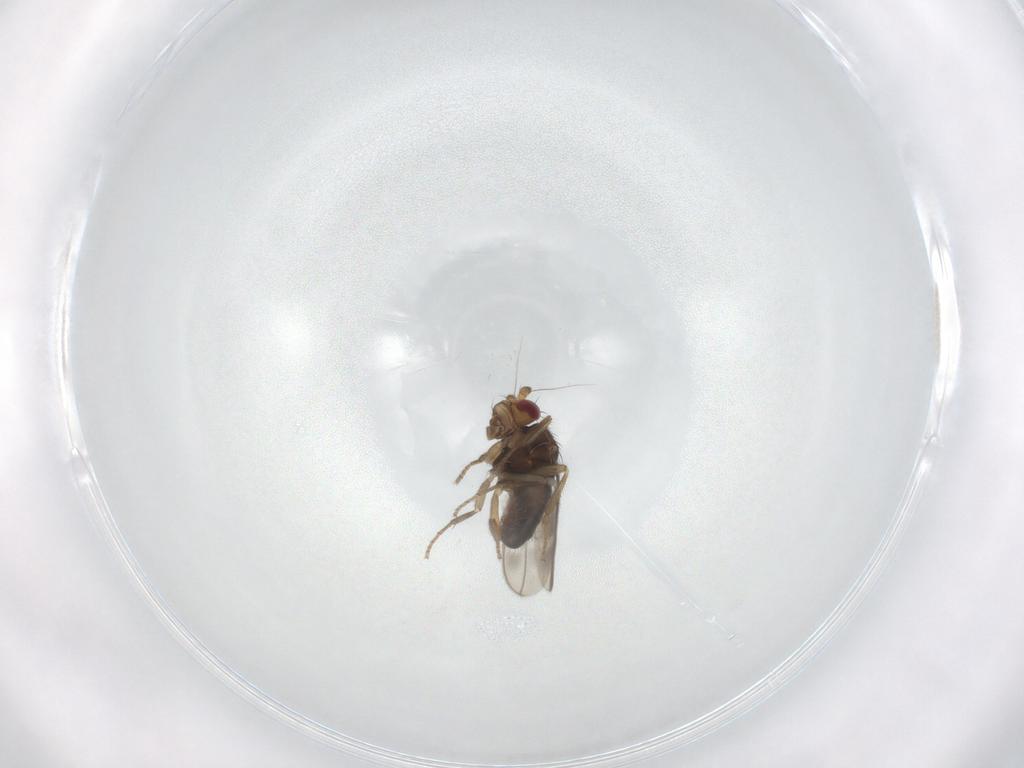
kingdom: Animalia
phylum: Arthropoda
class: Insecta
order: Diptera
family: Sphaeroceridae
